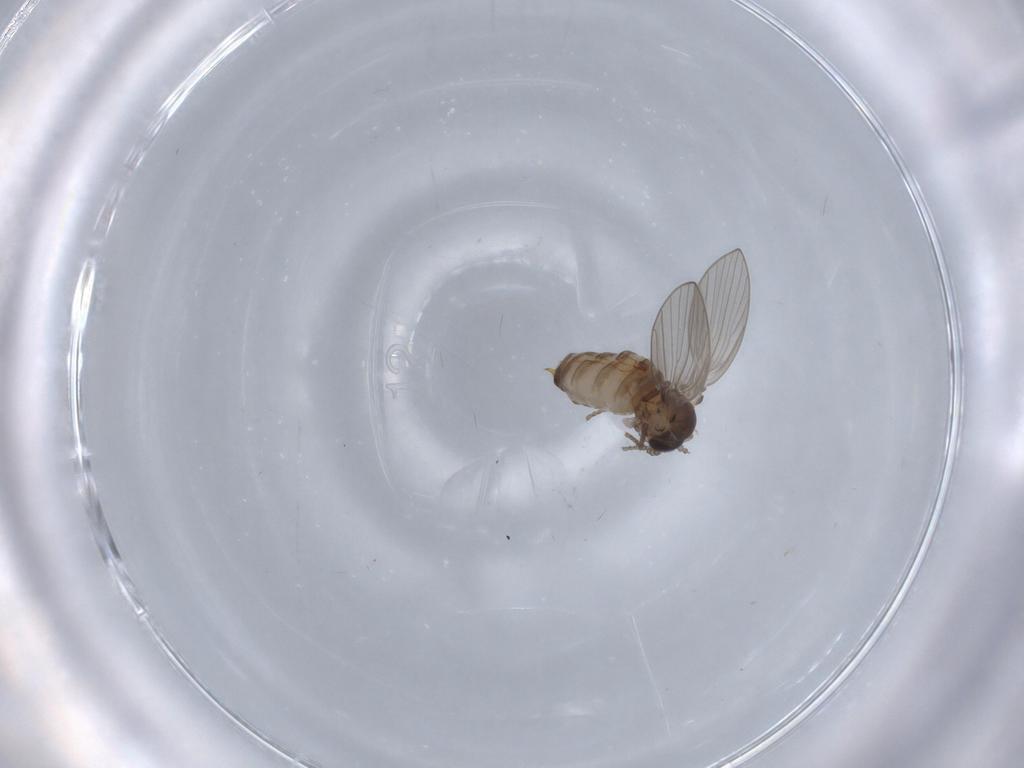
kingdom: Animalia
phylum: Arthropoda
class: Insecta
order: Diptera
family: Psychodidae
